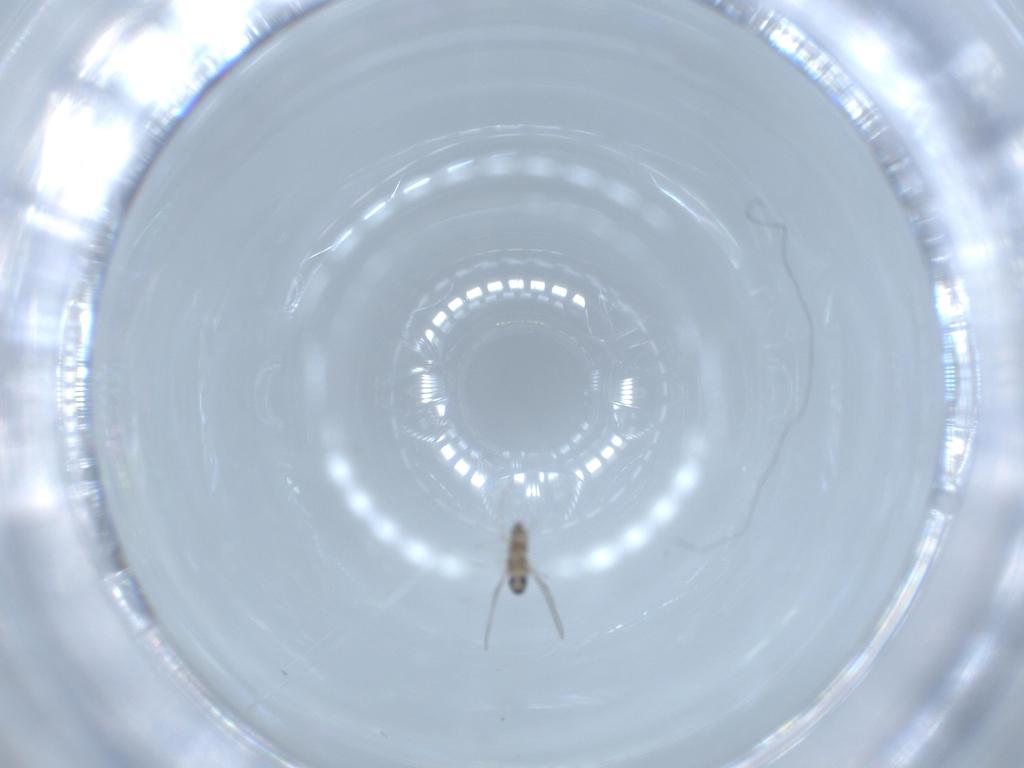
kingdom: Animalia
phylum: Arthropoda
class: Insecta
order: Diptera
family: Cecidomyiidae
